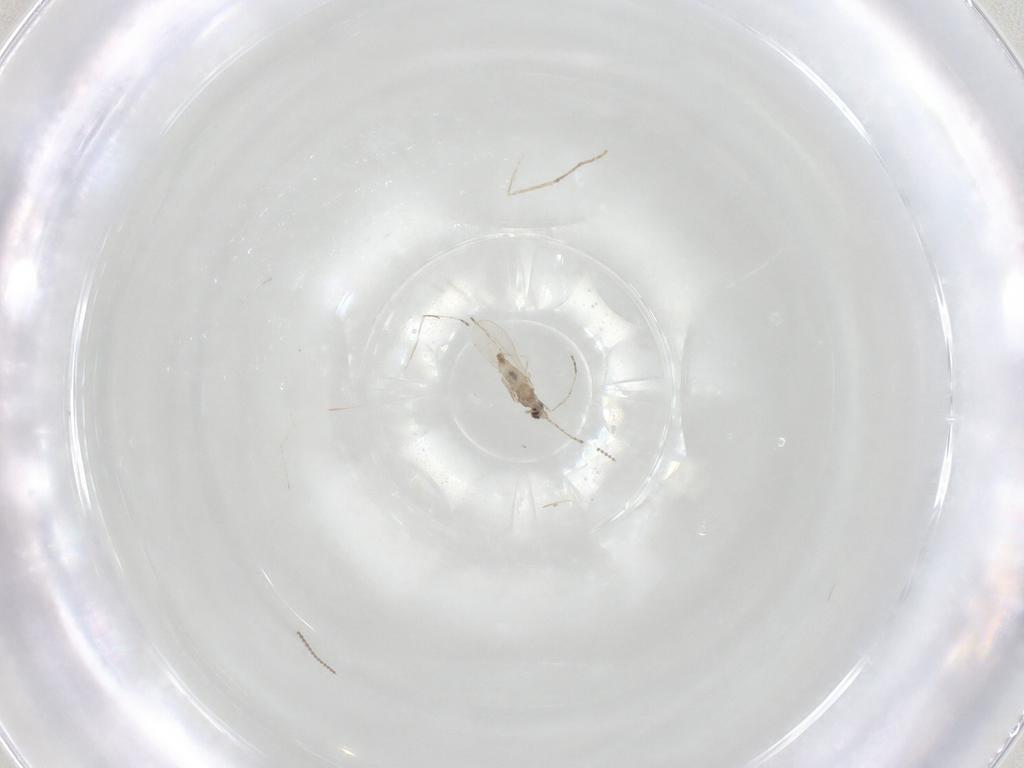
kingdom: Animalia
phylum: Arthropoda
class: Insecta
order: Diptera
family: Cecidomyiidae
